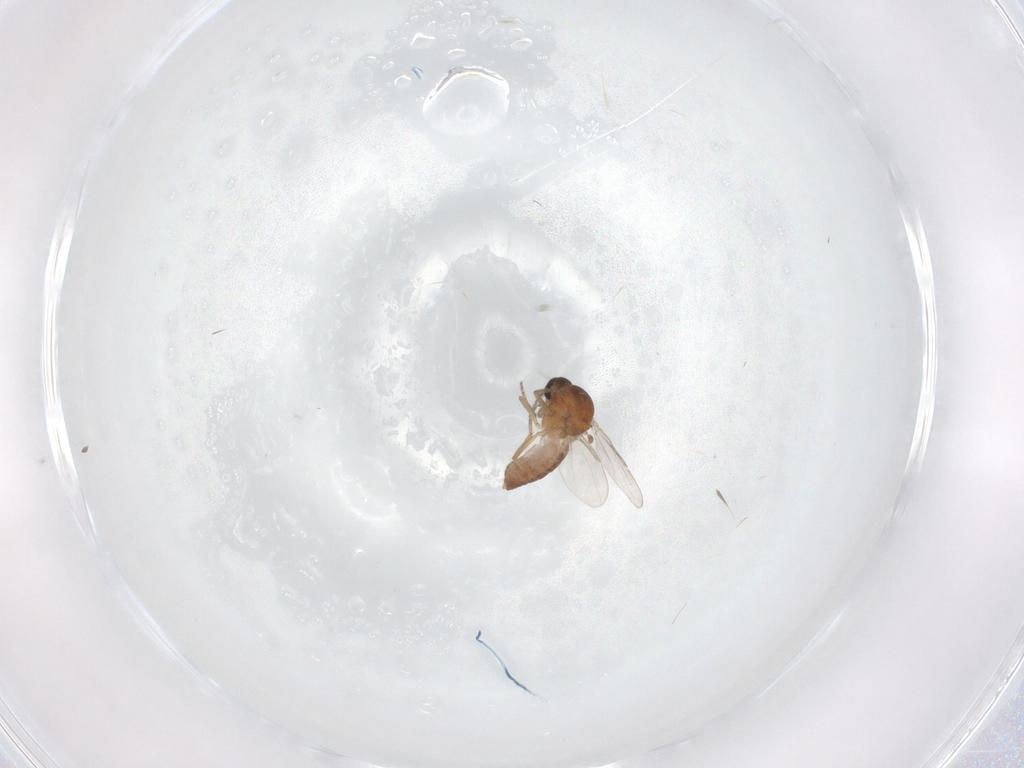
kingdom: Animalia
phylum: Arthropoda
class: Insecta
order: Diptera
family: Ceratopogonidae
